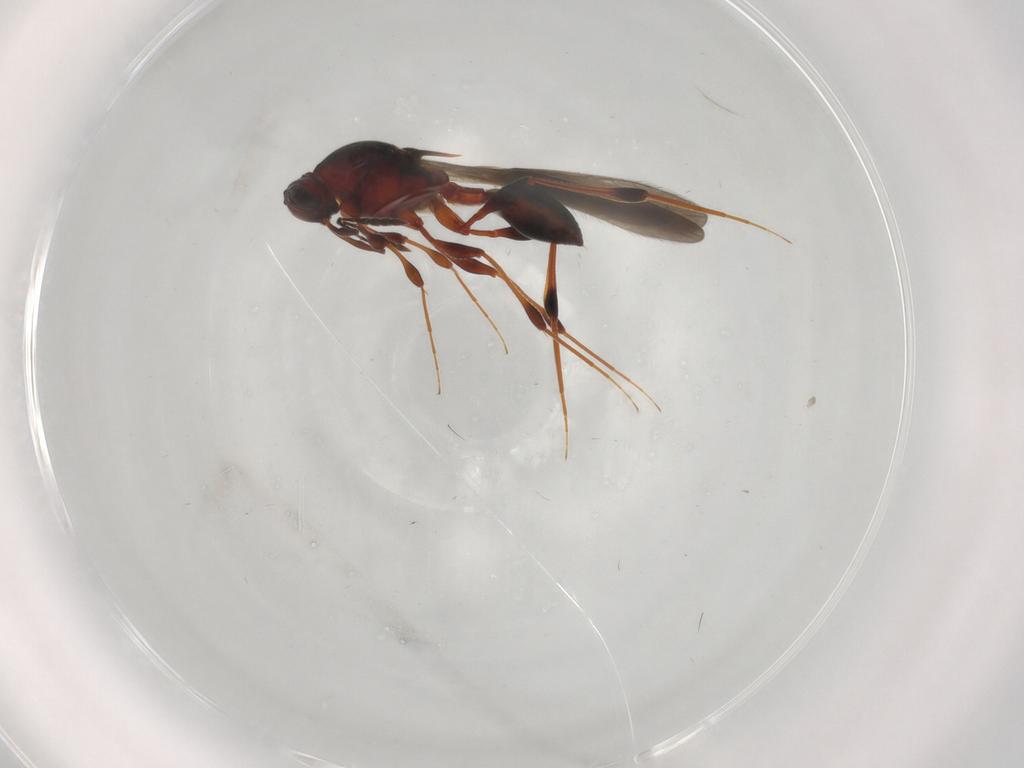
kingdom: Animalia
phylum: Arthropoda
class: Insecta
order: Hymenoptera
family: Platygastridae
